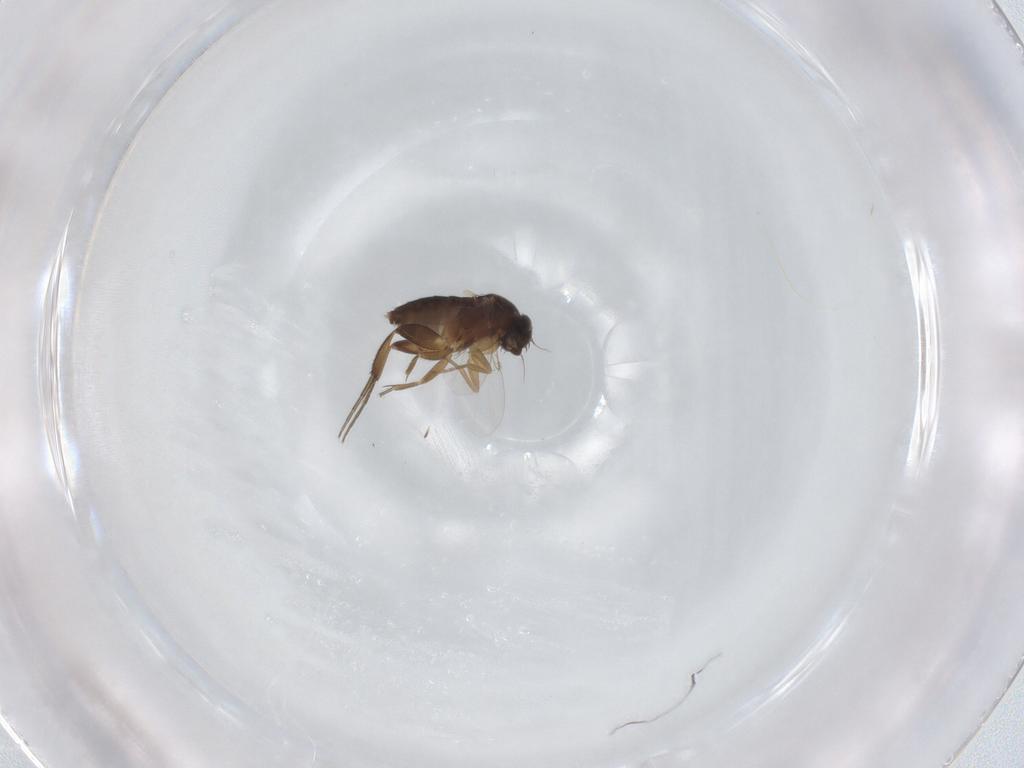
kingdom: Animalia
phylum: Arthropoda
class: Insecta
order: Diptera
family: Phoridae
